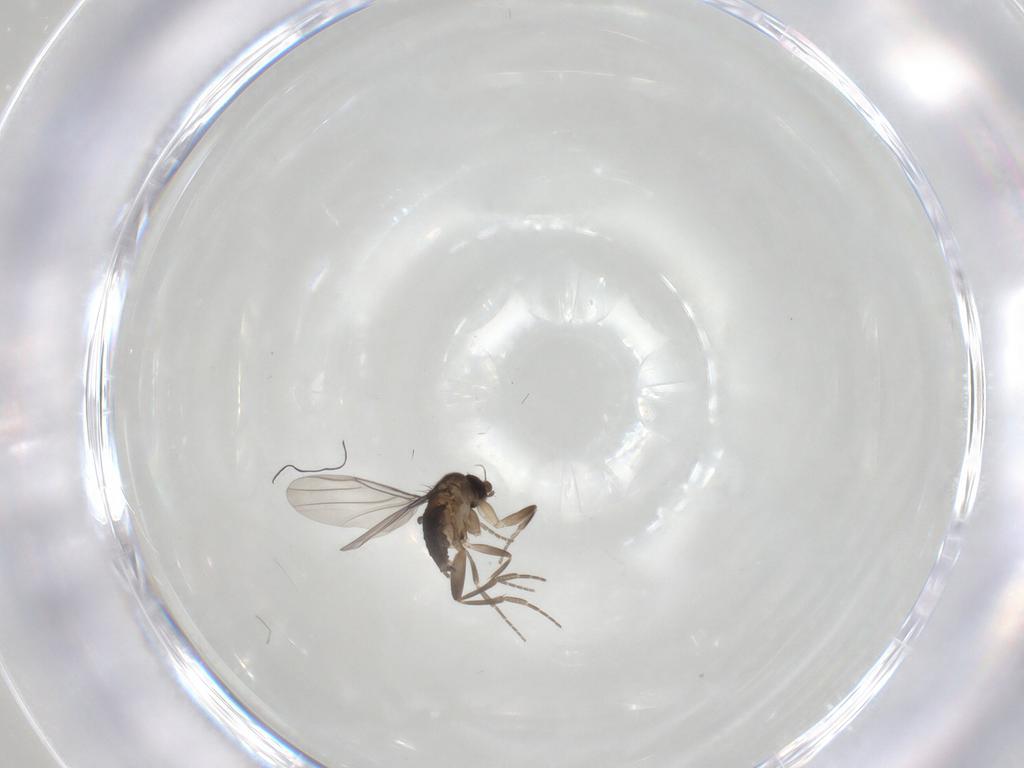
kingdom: Animalia
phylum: Arthropoda
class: Insecta
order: Diptera
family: Phoridae
